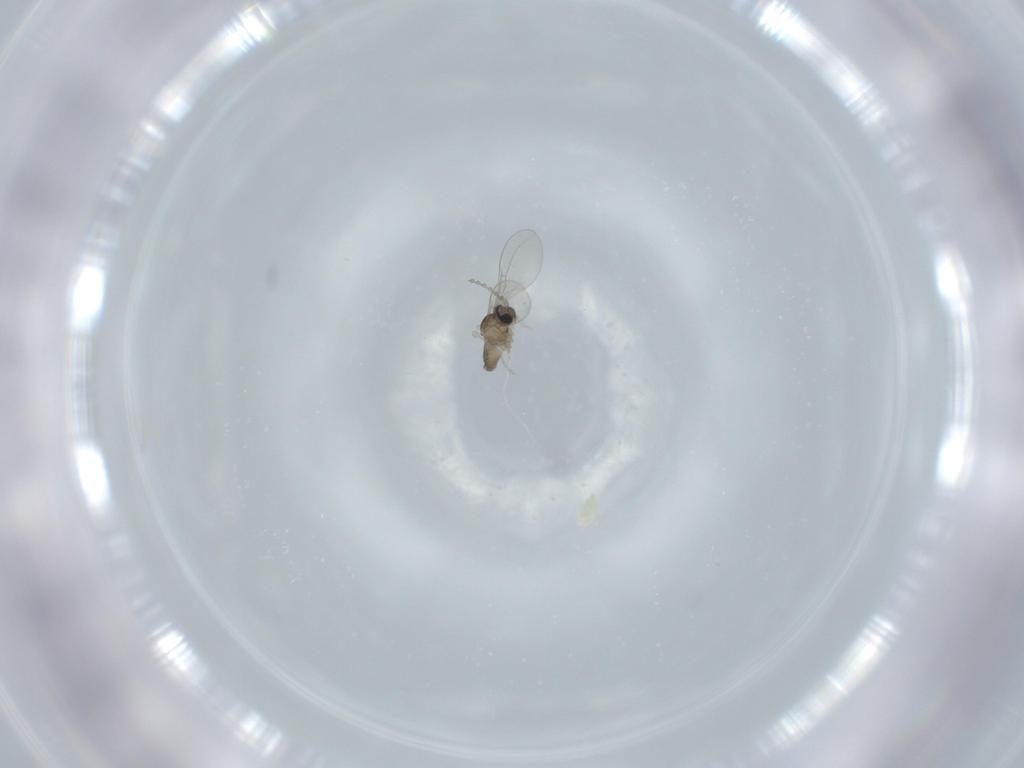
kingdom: Animalia
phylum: Arthropoda
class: Insecta
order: Diptera
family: Cecidomyiidae
